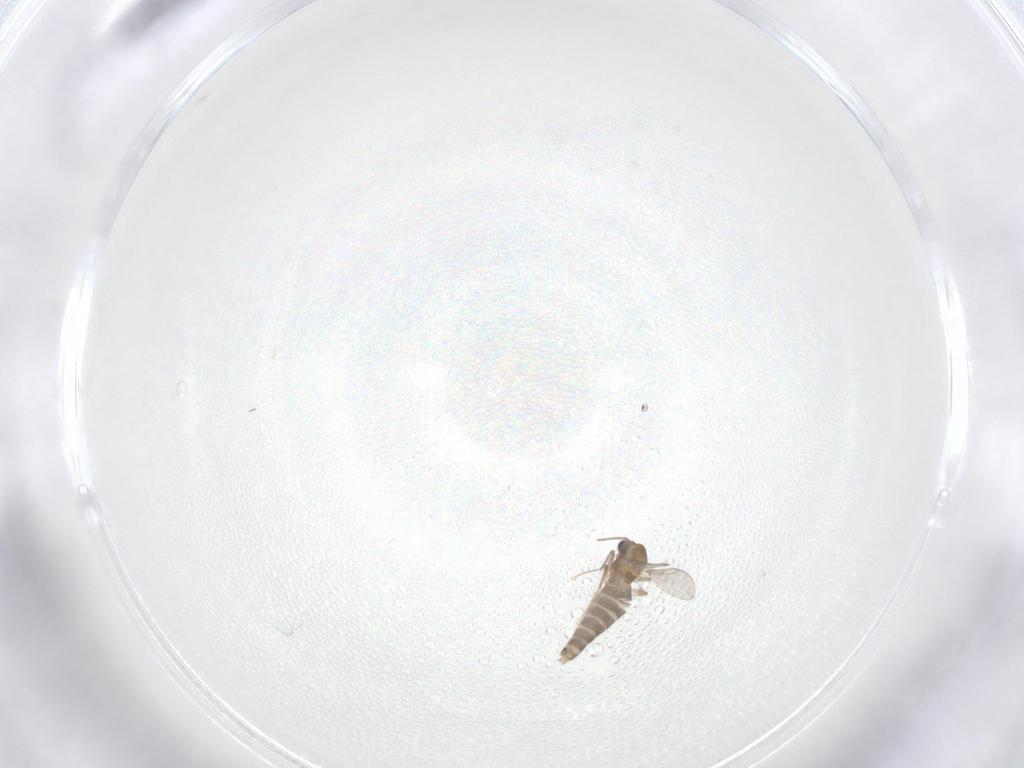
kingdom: Animalia
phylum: Arthropoda
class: Insecta
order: Diptera
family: Chironomidae
